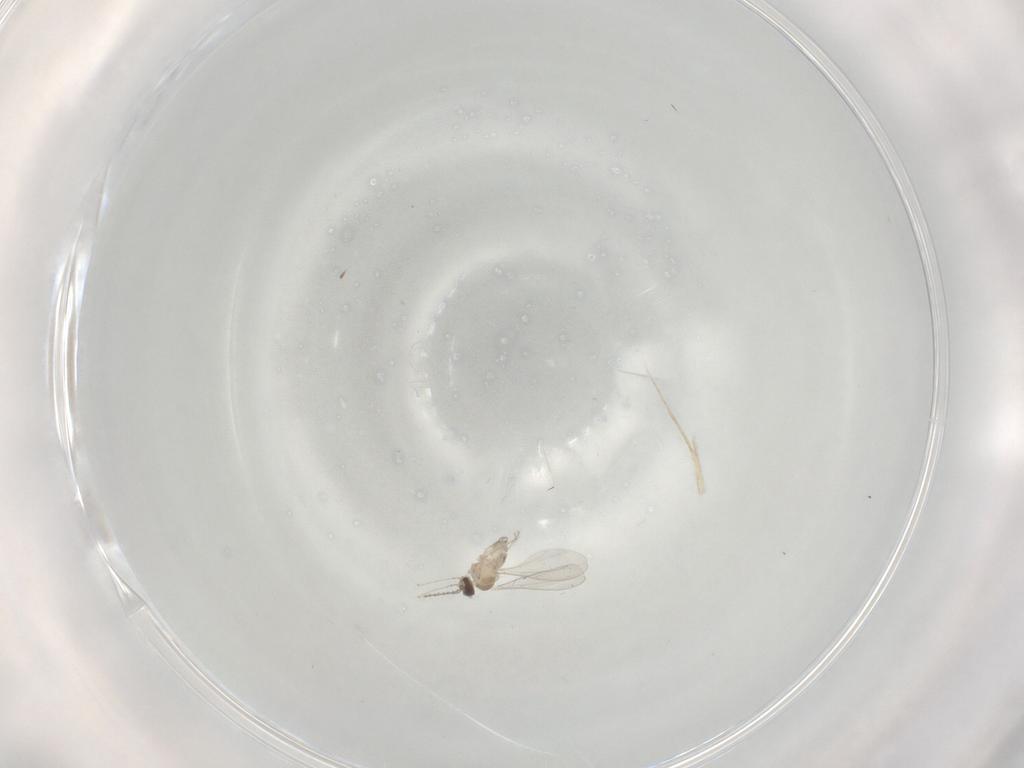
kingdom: Animalia
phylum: Arthropoda
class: Insecta
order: Diptera
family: Cecidomyiidae
